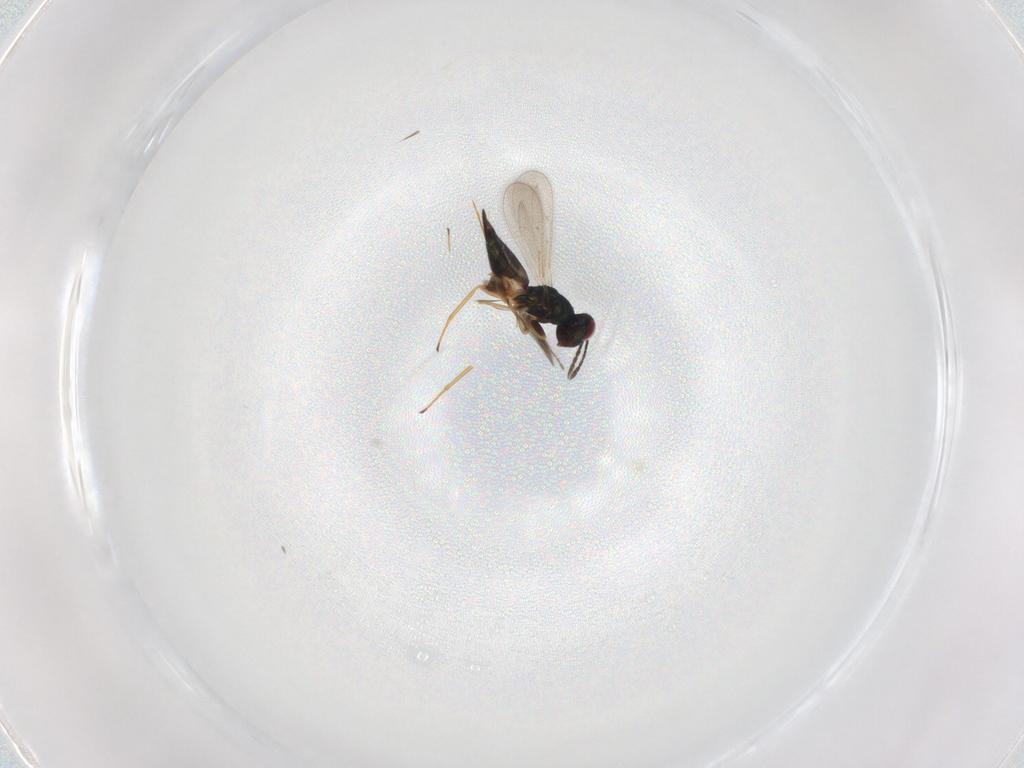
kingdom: Animalia
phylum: Arthropoda
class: Insecta
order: Hymenoptera
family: Eulophidae
